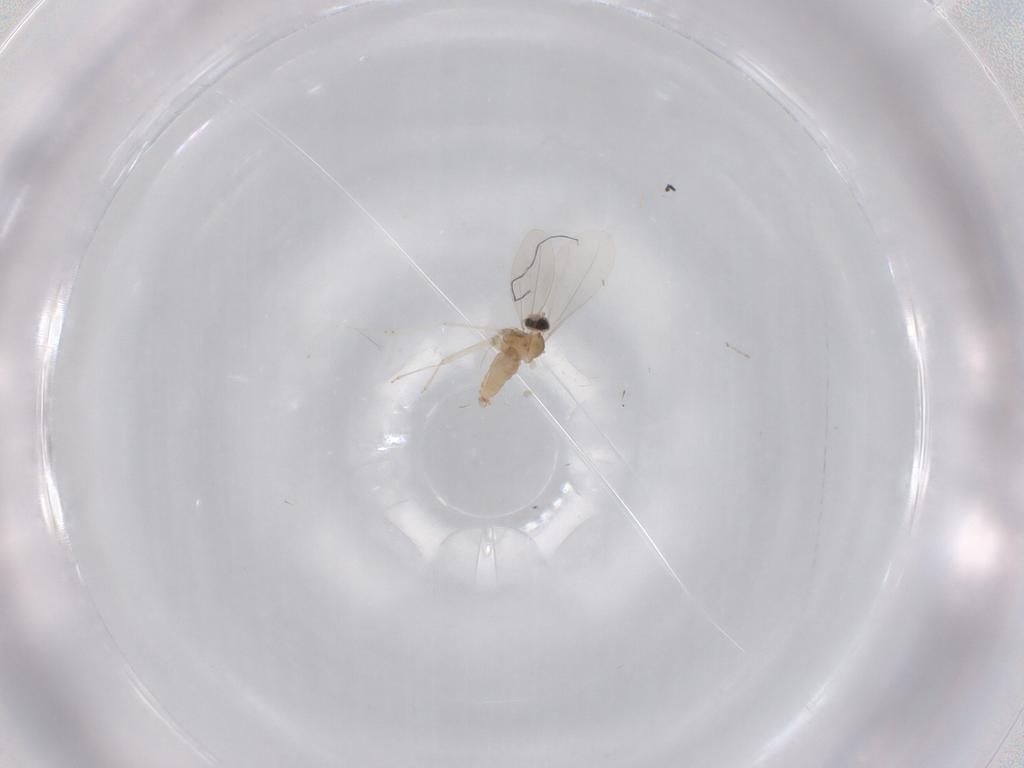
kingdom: Animalia
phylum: Arthropoda
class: Insecta
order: Diptera
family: Cecidomyiidae
